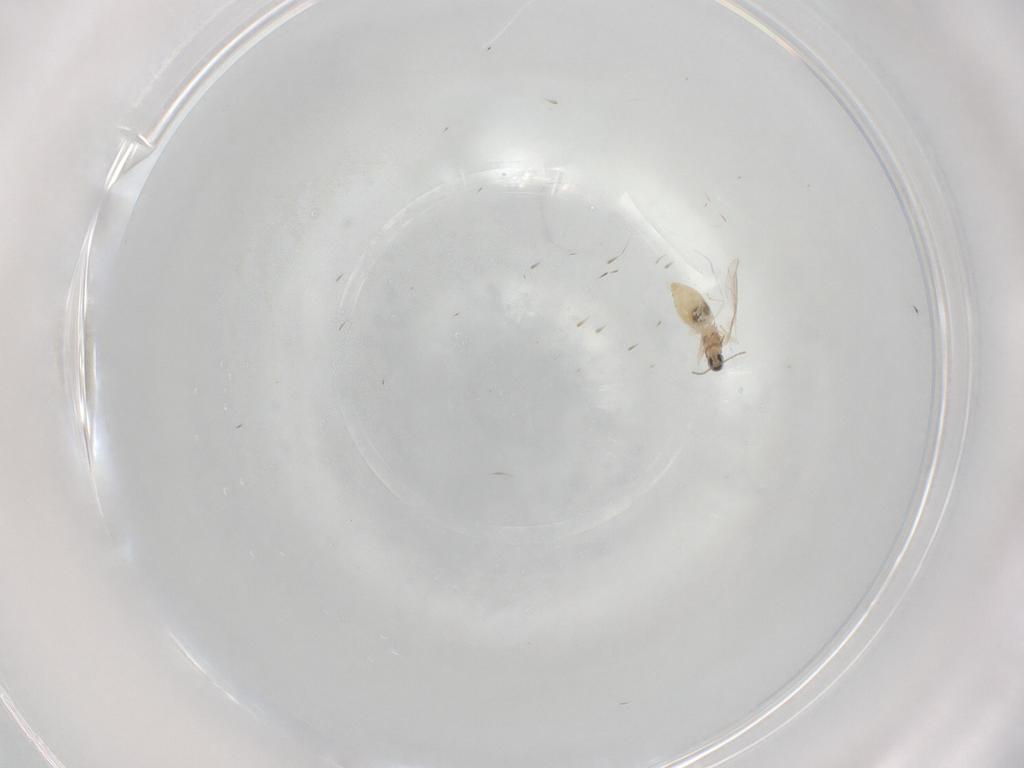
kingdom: Animalia
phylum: Arthropoda
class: Insecta
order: Diptera
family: Cecidomyiidae
